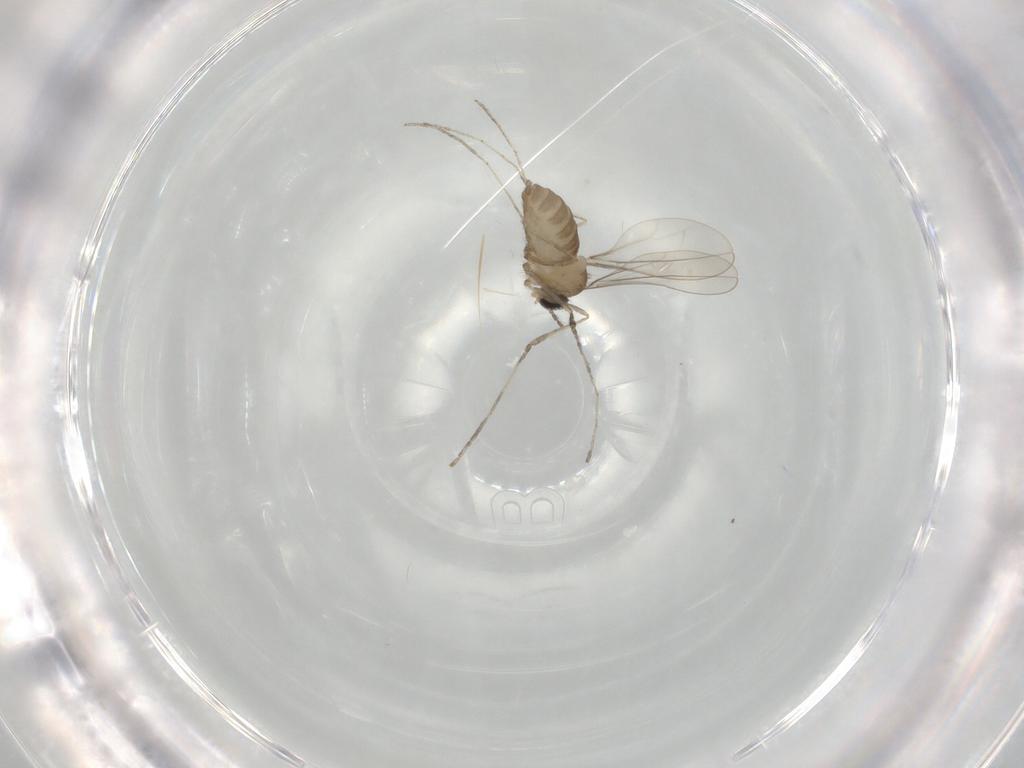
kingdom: Animalia
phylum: Arthropoda
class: Insecta
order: Diptera
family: Cecidomyiidae
